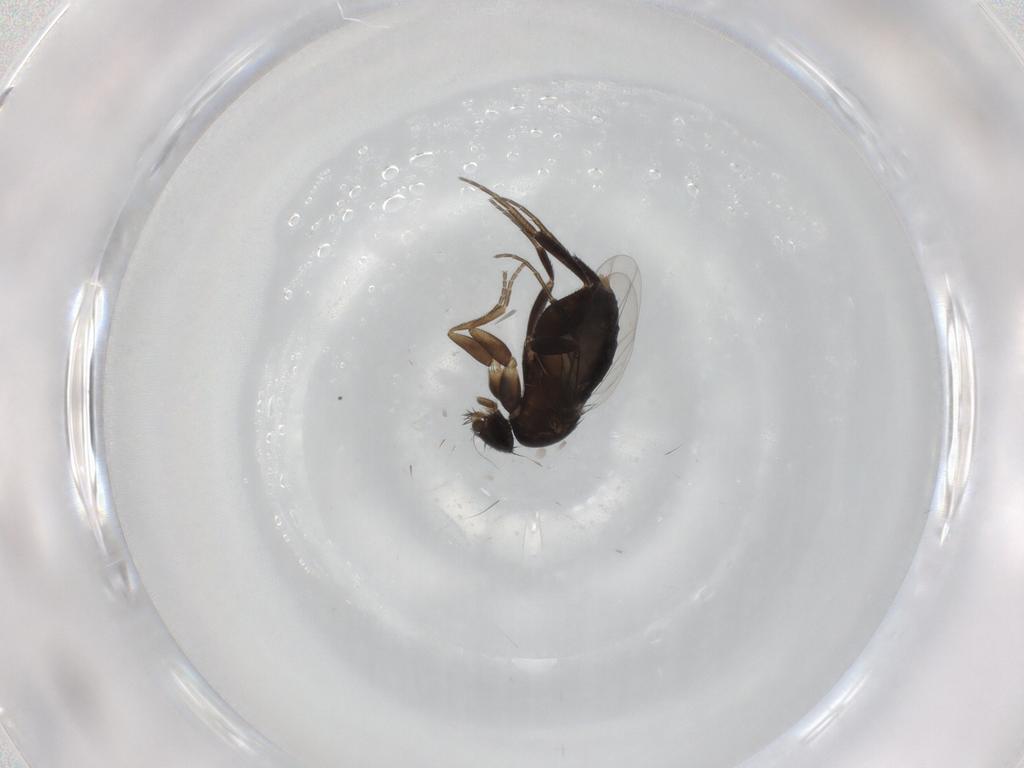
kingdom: Animalia
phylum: Arthropoda
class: Insecta
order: Diptera
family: Phoridae
